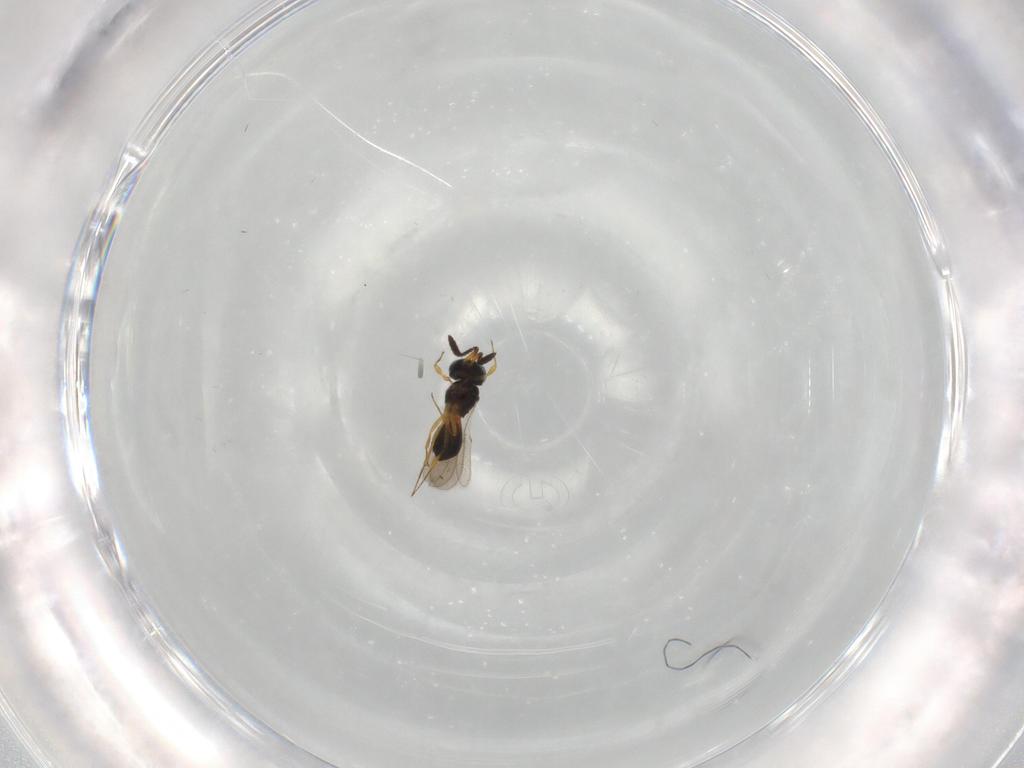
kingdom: Animalia
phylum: Arthropoda
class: Insecta
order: Hymenoptera
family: Scelionidae
